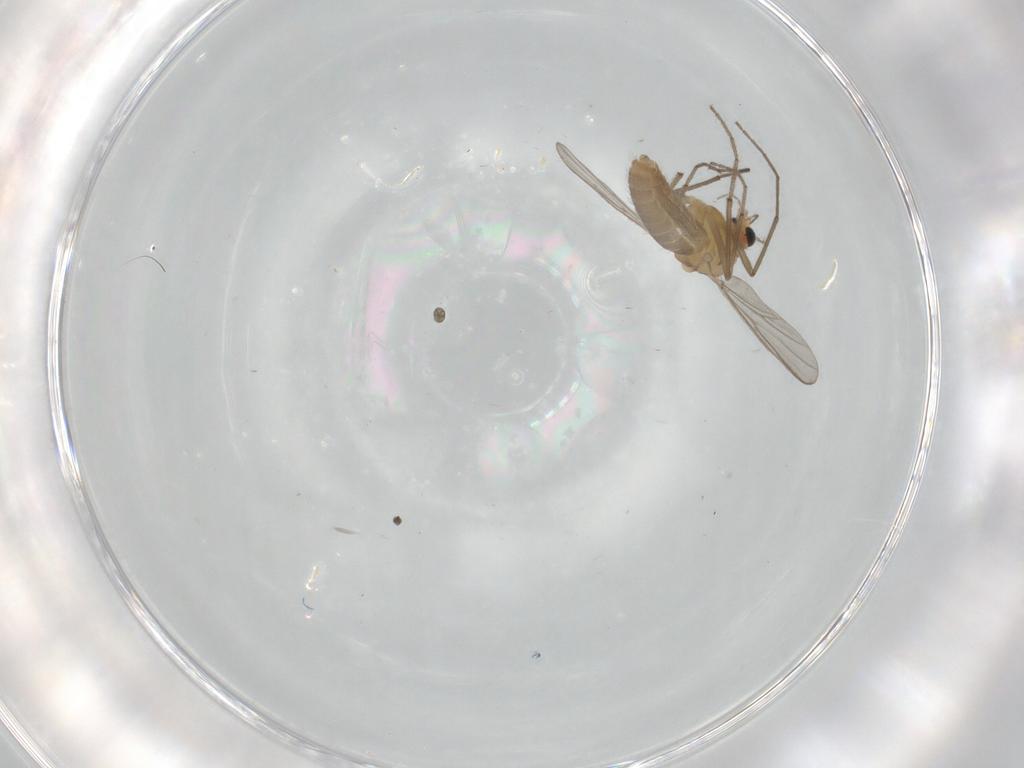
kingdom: Animalia
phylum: Arthropoda
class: Insecta
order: Diptera
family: Chironomidae
